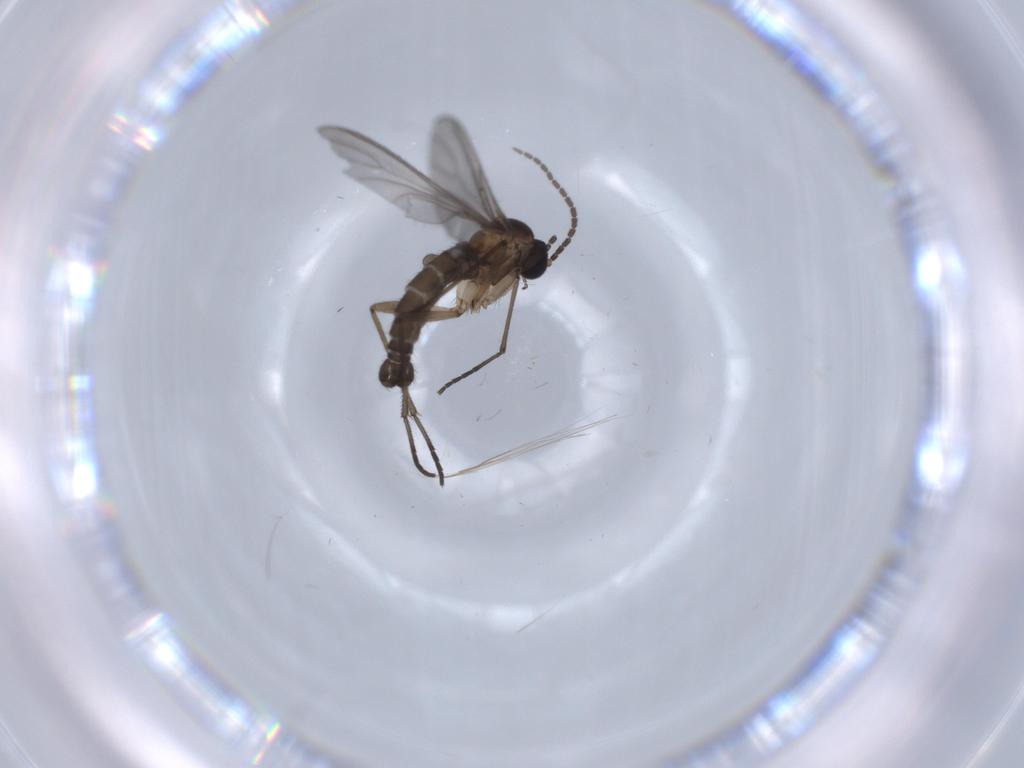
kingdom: Animalia
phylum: Arthropoda
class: Insecta
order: Diptera
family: Sciaridae
